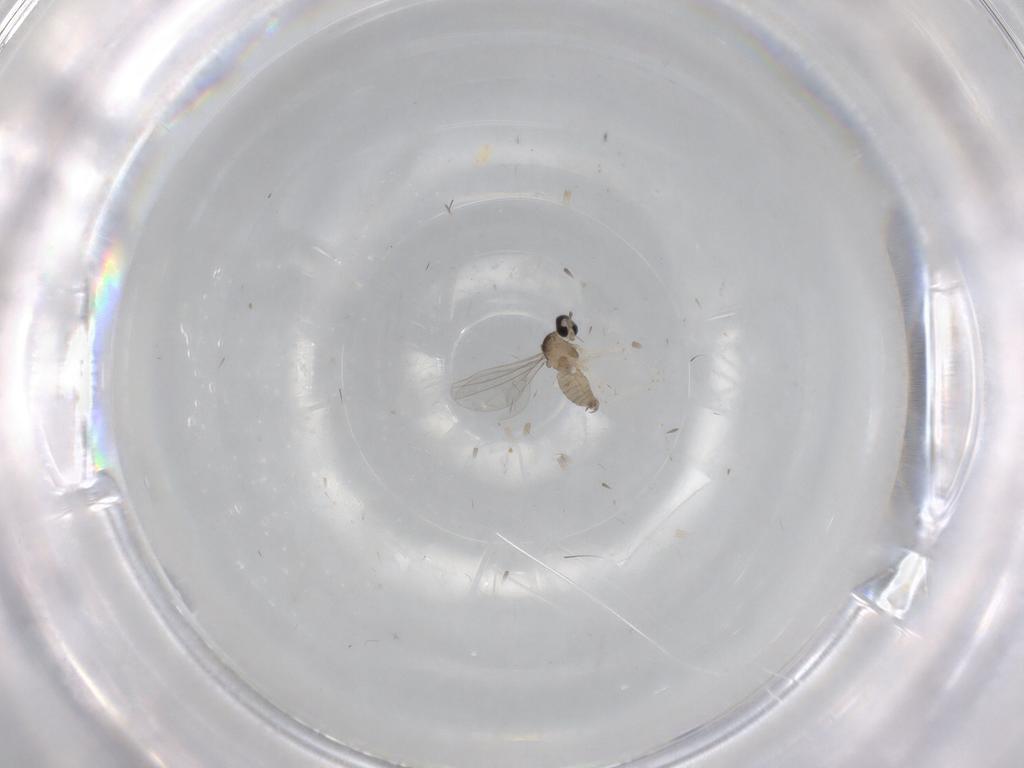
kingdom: Animalia
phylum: Arthropoda
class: Insecta
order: Diptera
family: Cecidomyiidae
